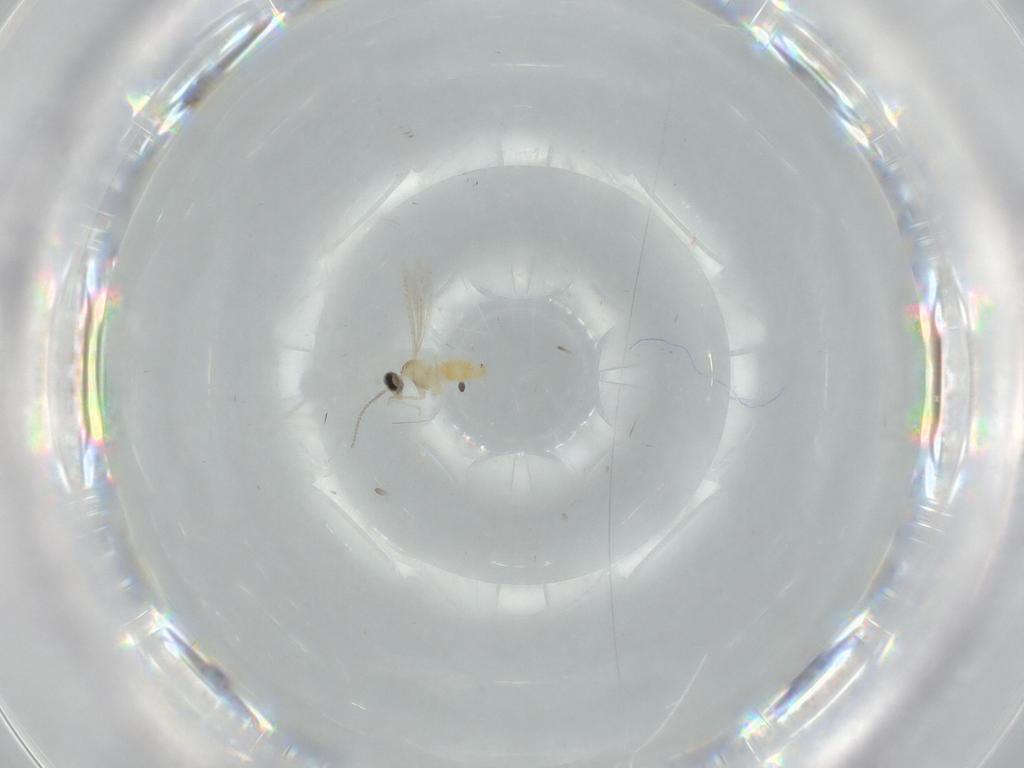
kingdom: Animalia
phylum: Arthropoda
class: Insecta
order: Diptera
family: Cecidomyiidae
